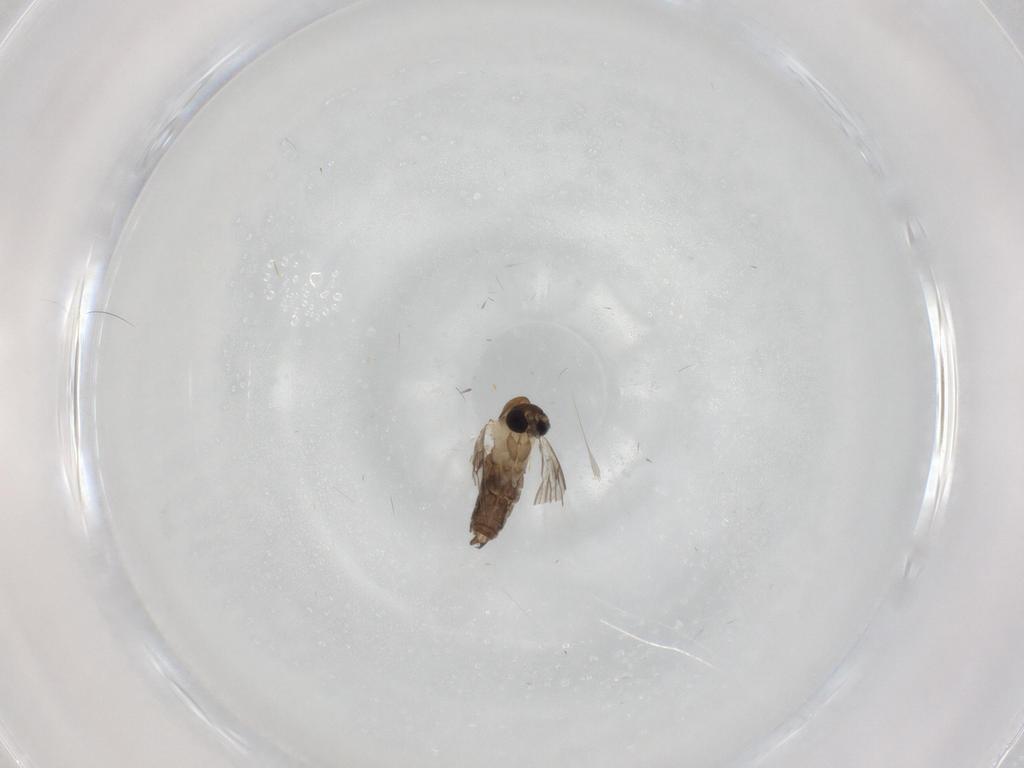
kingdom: Animalia
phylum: Arthropoda
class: Insecta
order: Diptera
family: Psychodidae
